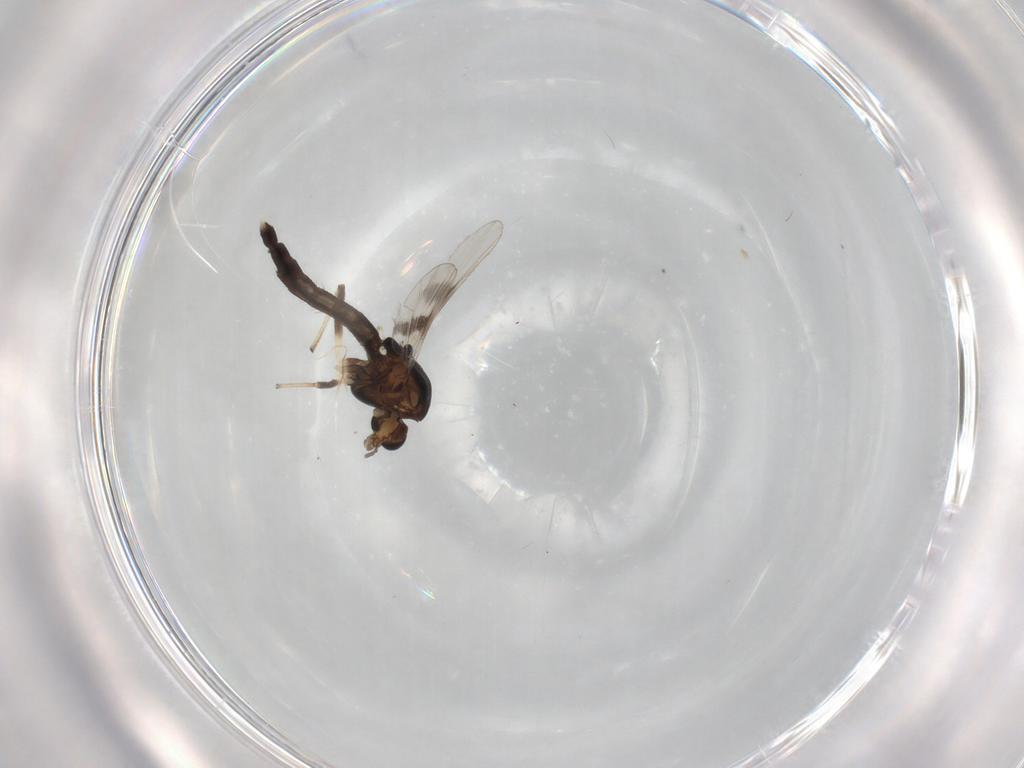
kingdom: Animalia
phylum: Arthropoda
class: Insecta
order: Diptera
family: Chironomidae
